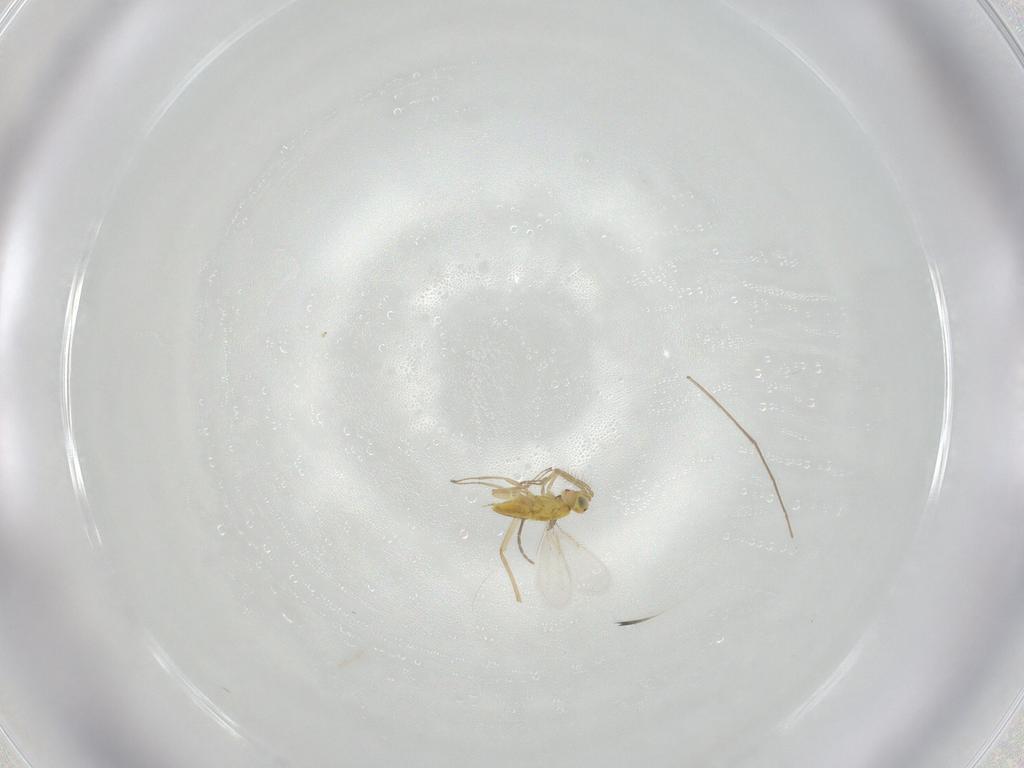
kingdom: Animalia
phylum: Arthropoda
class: Insecta
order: Hymenoptera
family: Aphelinidae
